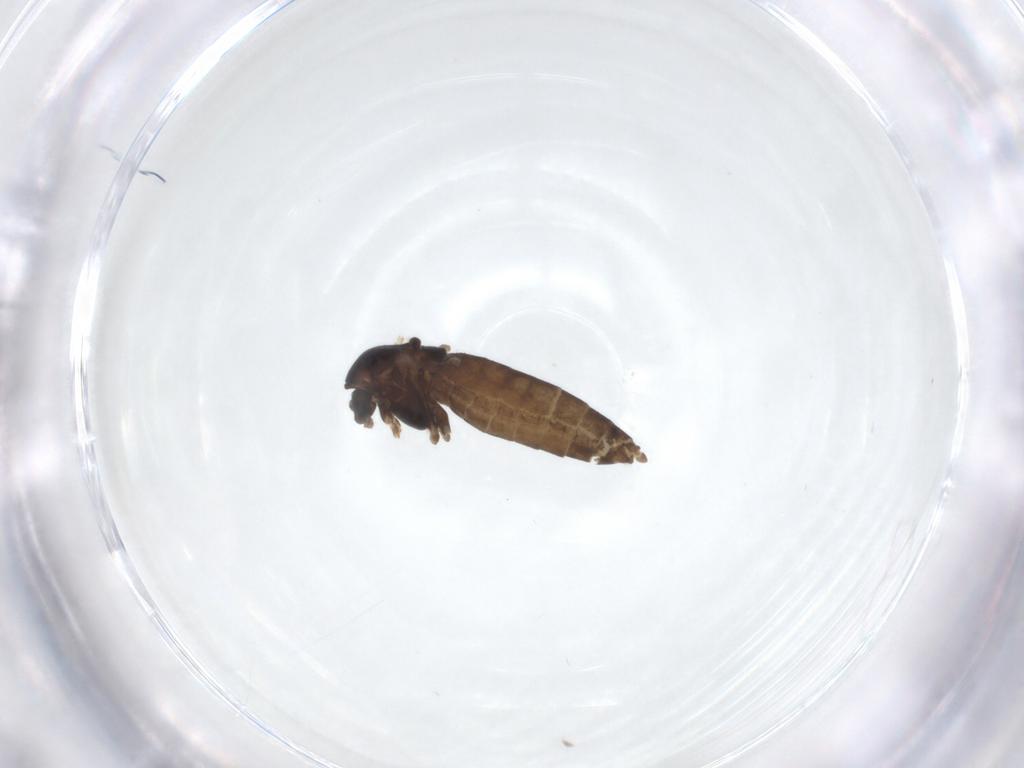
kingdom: Animalia
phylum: Arthropoda
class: Insecta
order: Diptera
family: Chironomidae
